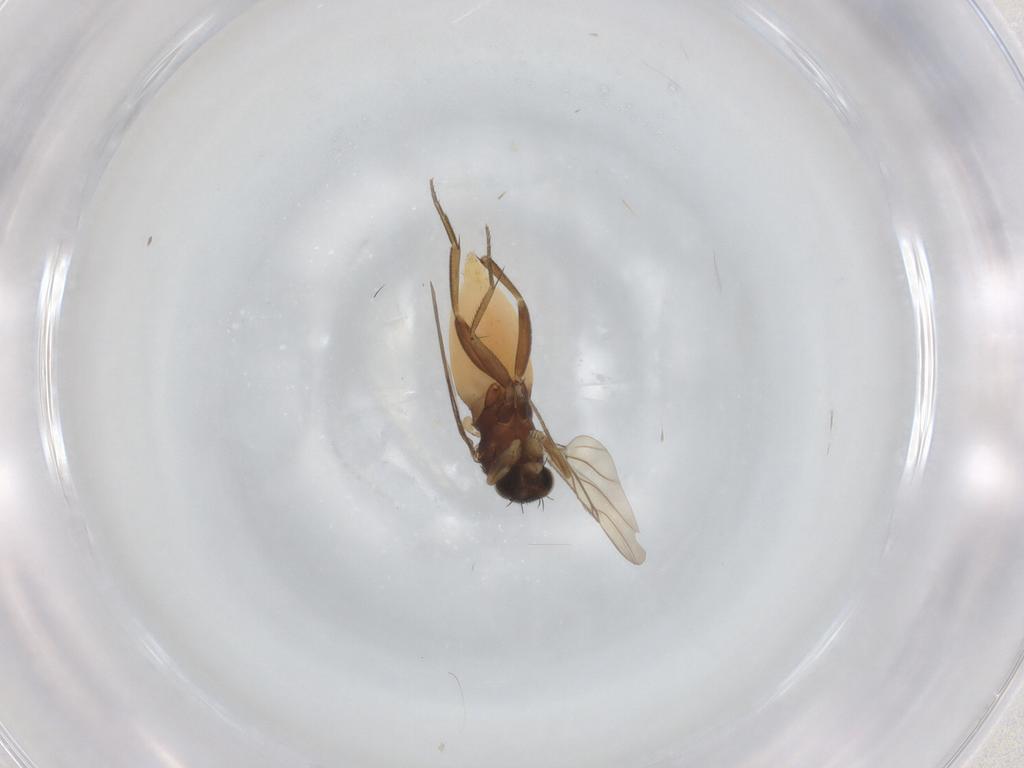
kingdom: Animalia
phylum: Arthropoda
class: Insecta
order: Diptera
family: Phoridae
